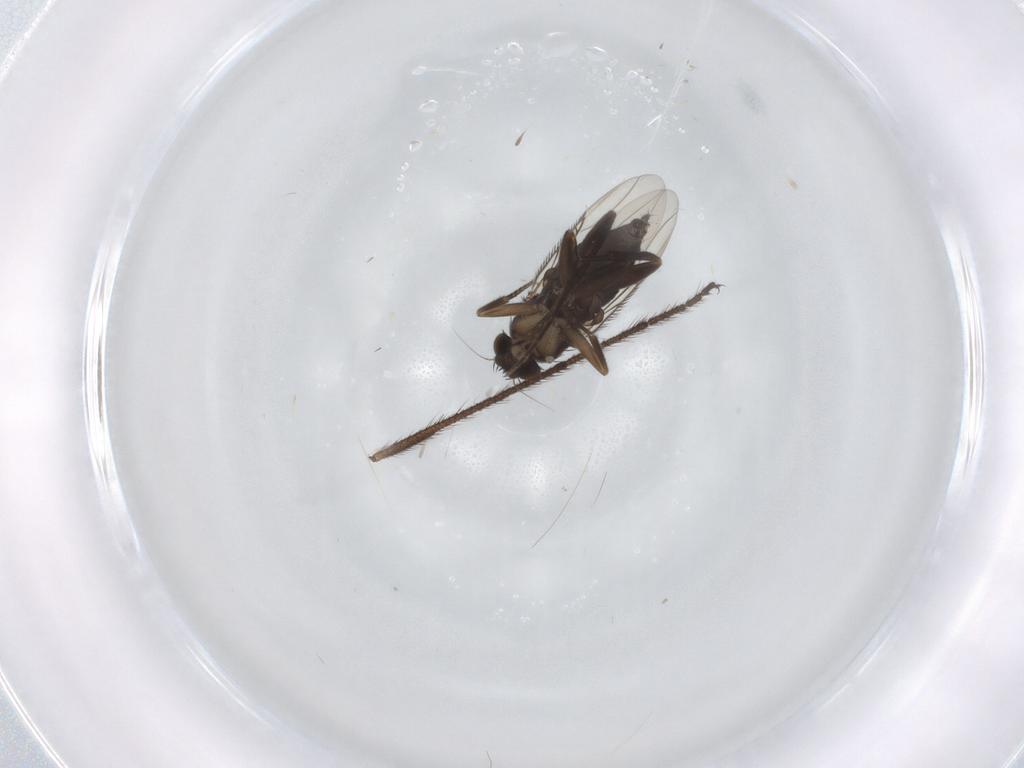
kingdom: Animalia
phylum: Arthropoda
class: Insecta
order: Diptera
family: Phoridae
